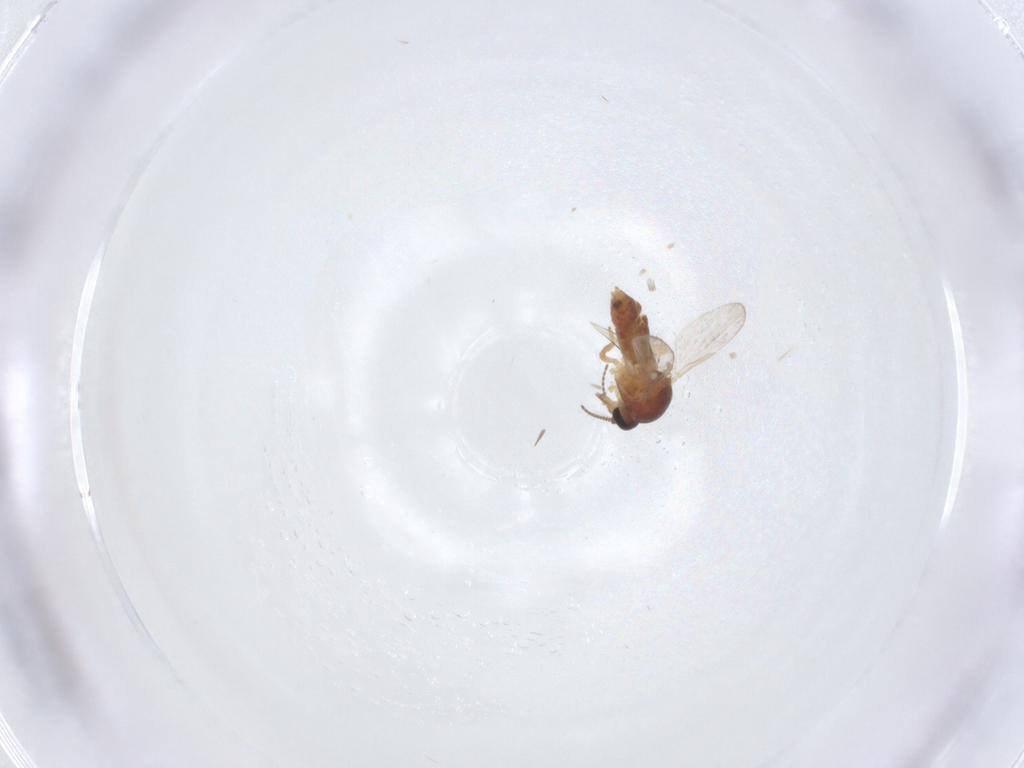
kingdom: Animalia
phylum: Arthropoda
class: Insecta
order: Diptera
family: Ceratopogonidae
